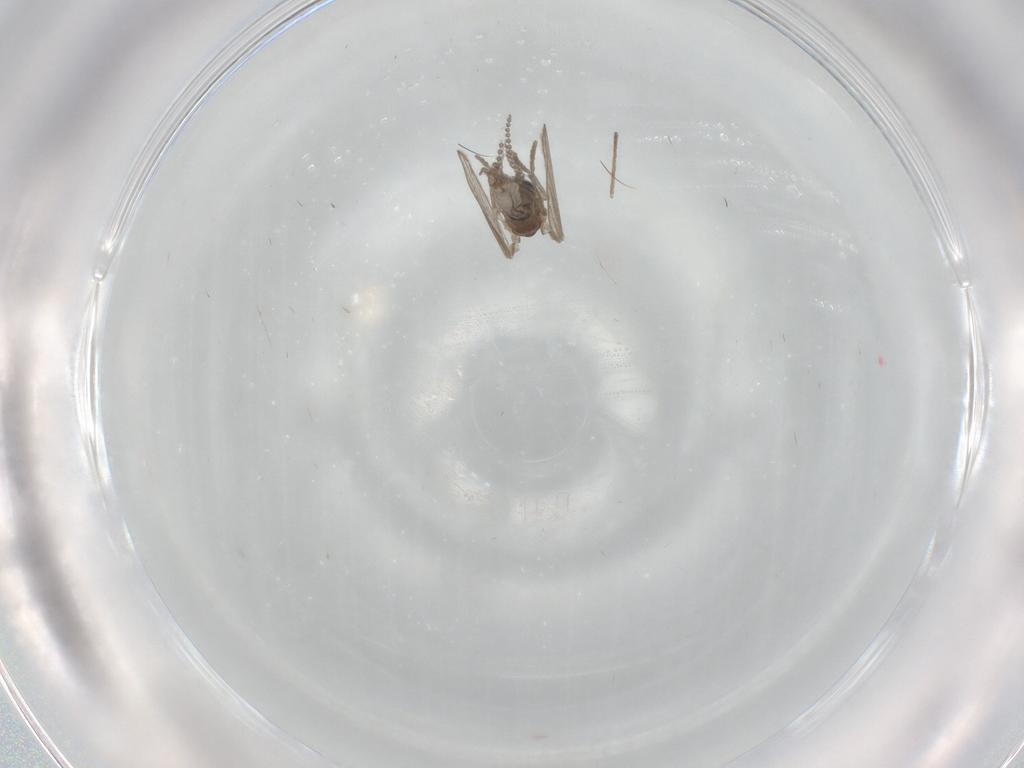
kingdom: Animalia
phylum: Arthropoda
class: Insecta
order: Diptera
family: Psychodidae
